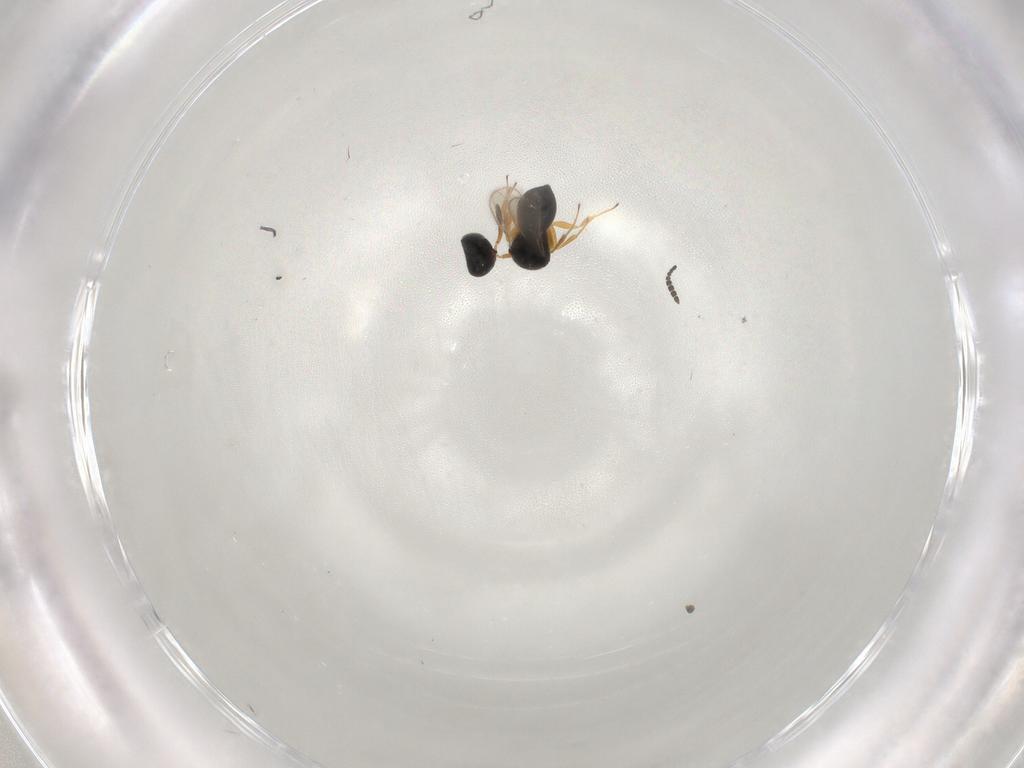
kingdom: Animalia
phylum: Arthropoda
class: Insecta
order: Hymenoptera
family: Scelionidae
